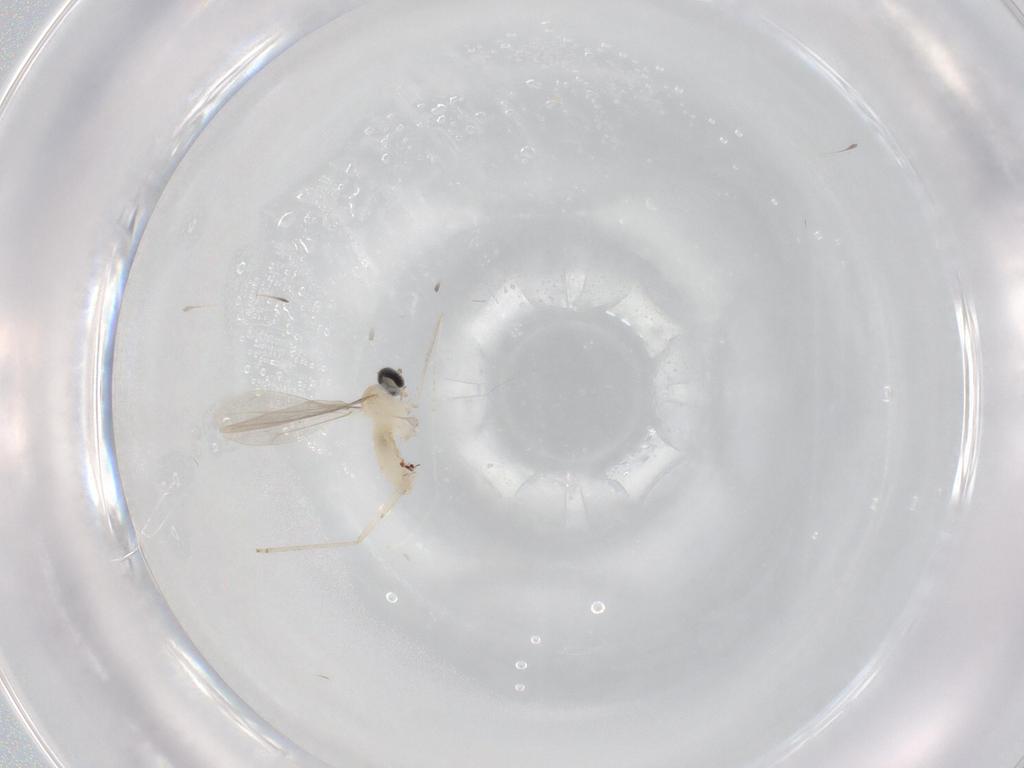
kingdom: Animalia
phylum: Arthropoda
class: Insecta
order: Diptera
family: Cecidomyiidae
